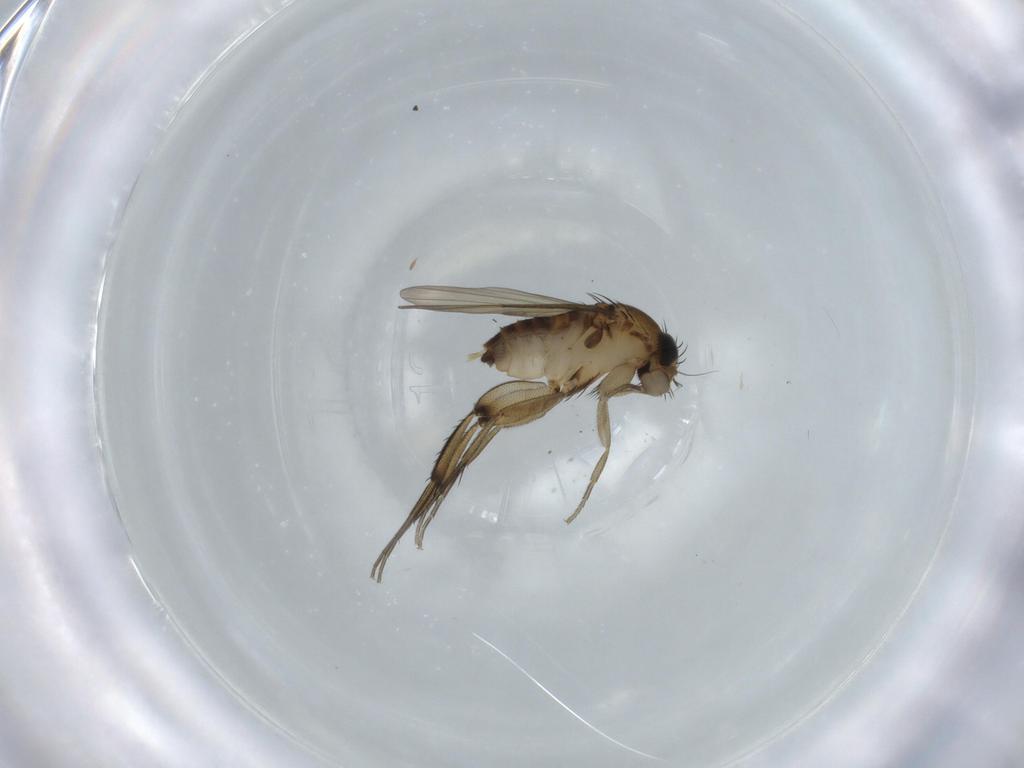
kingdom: Animalia
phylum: Arthropoda
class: Insecta
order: Diptera
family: Phoridae
